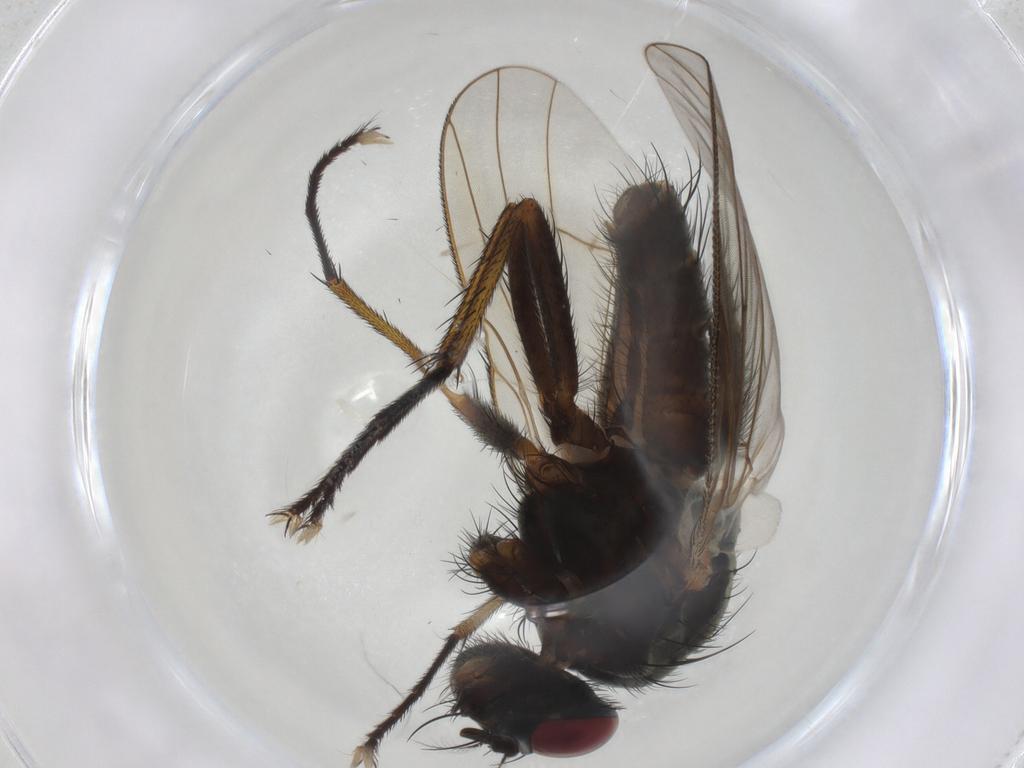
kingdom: Animalia
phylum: Arthropoda
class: Insecta
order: Diptera
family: Muscidae
